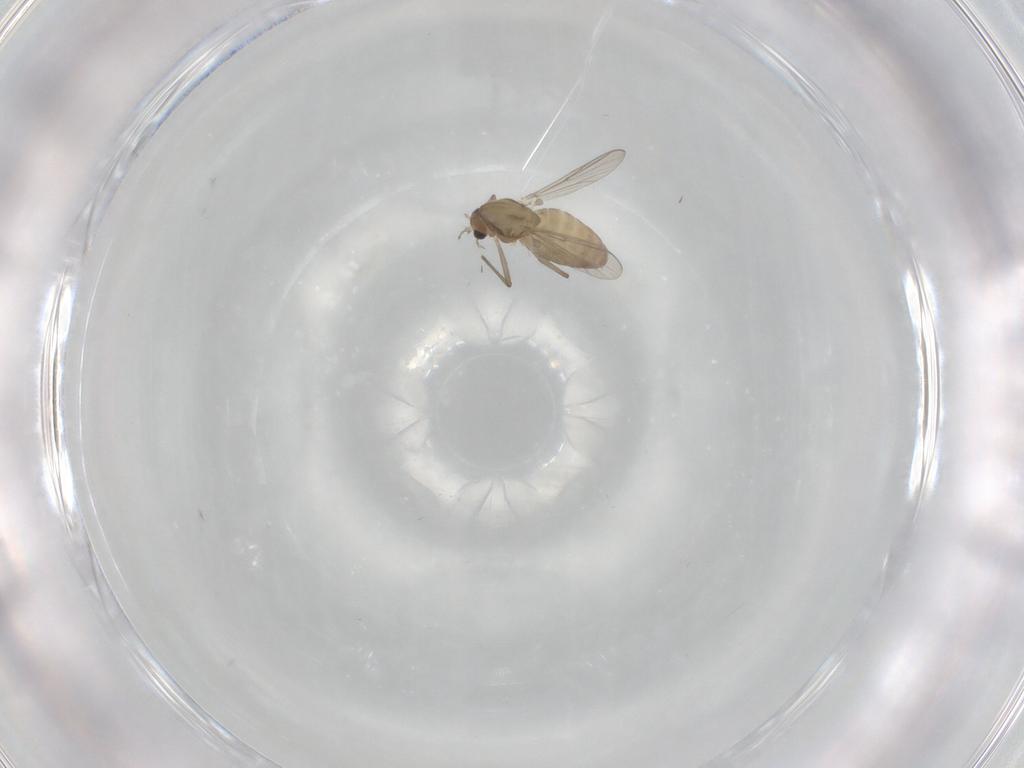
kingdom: Animalia
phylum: Arthropoda
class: Insecta
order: Diptera
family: Chironomidae
